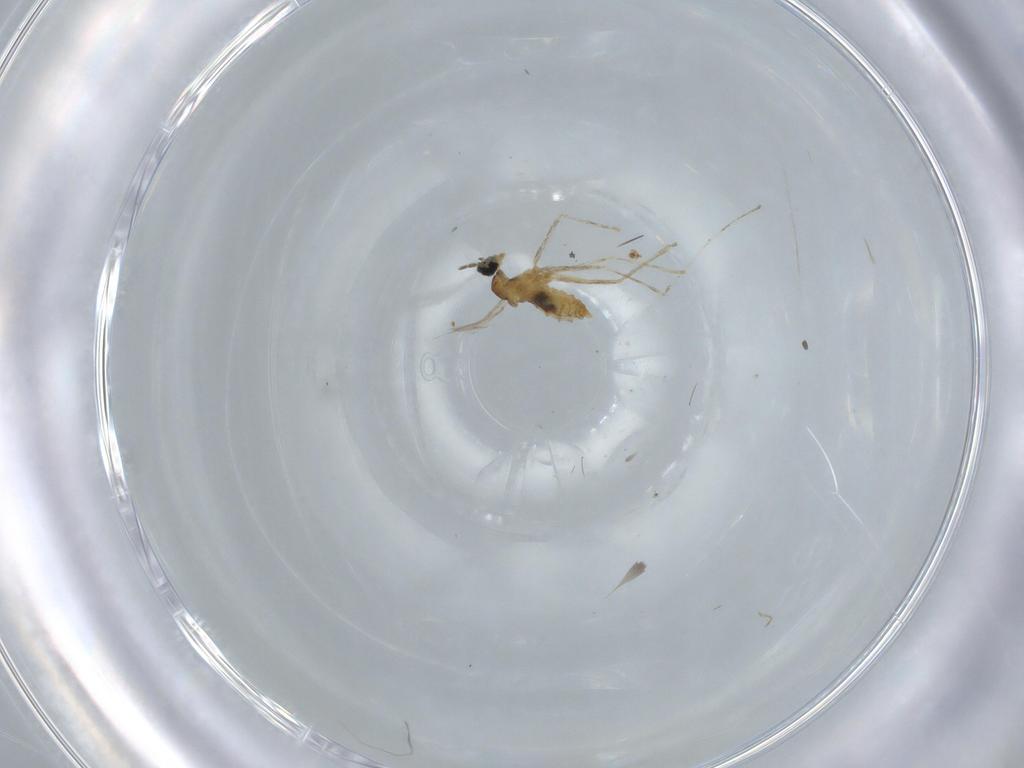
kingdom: Animalia
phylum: Arthropoda
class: Insecta
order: Diptera
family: Cecidomyiidae
